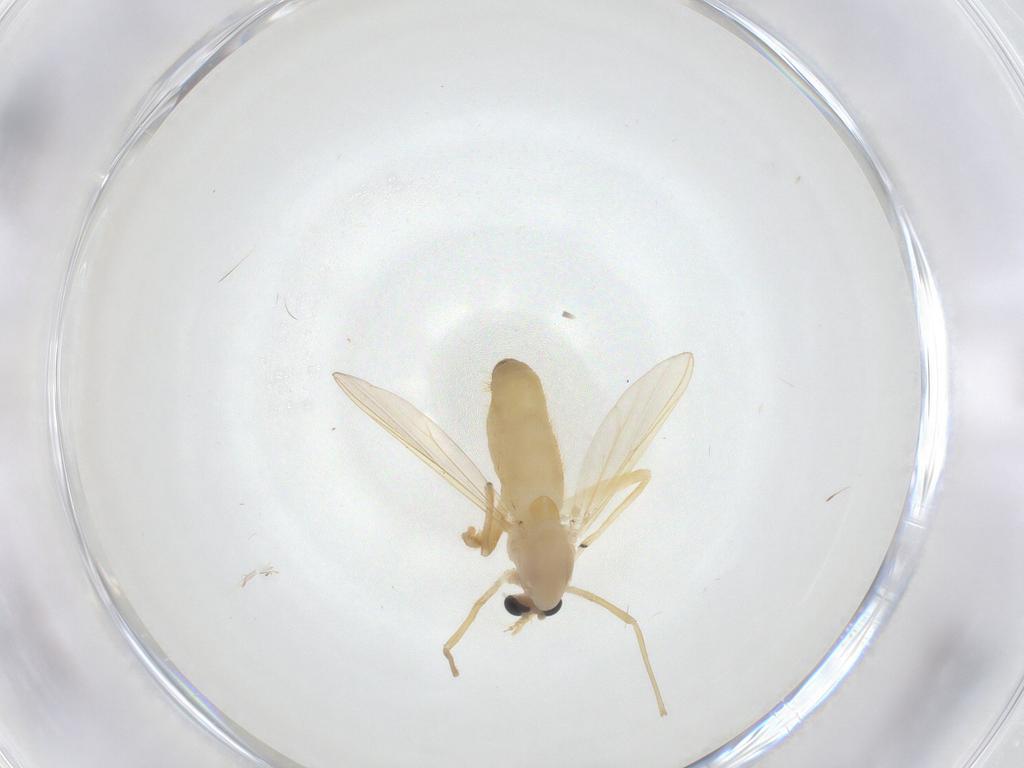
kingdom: Animalia
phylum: Arthropoda
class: Insecta
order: Diptera
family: Chironomidae
